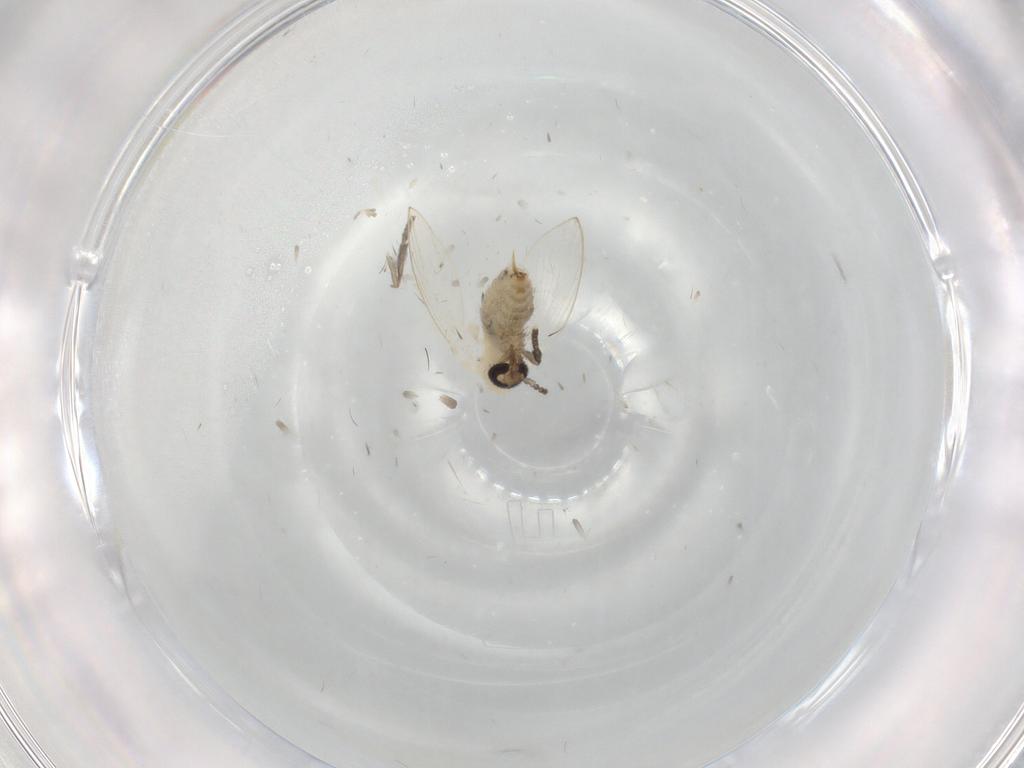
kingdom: Animalia
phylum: Arthropoda
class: Insecta
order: Diptera
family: Psychodidae
